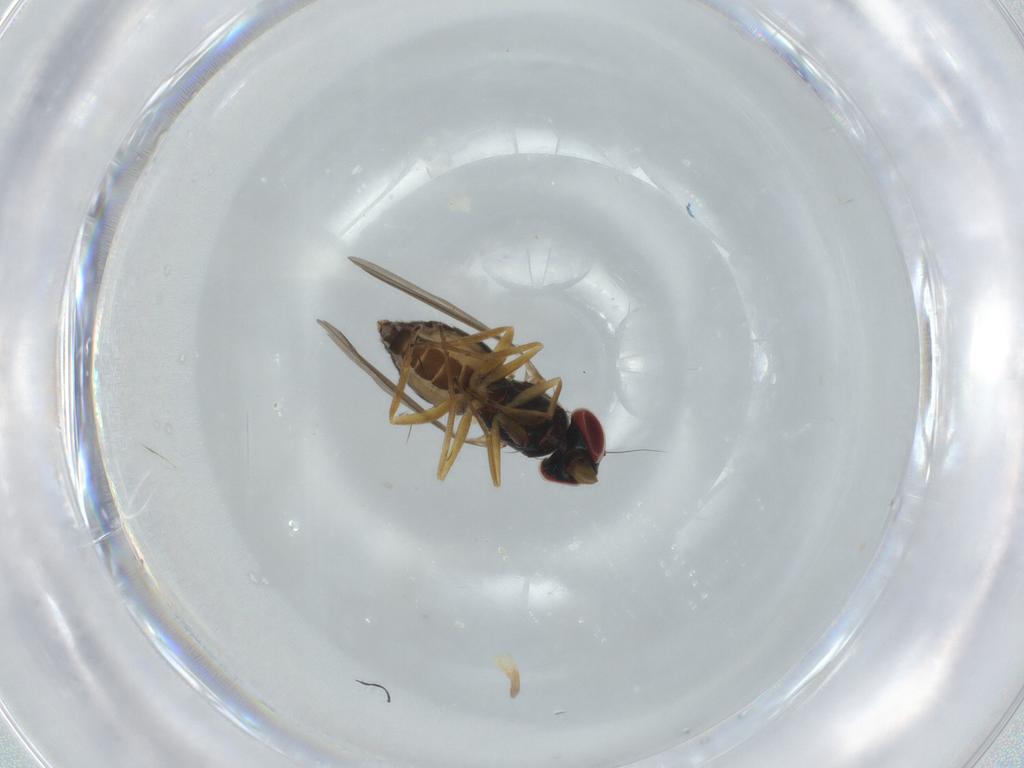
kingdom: Animalia
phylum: Arthropoda
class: Insecta
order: Diptera
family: Dolichopodidae
